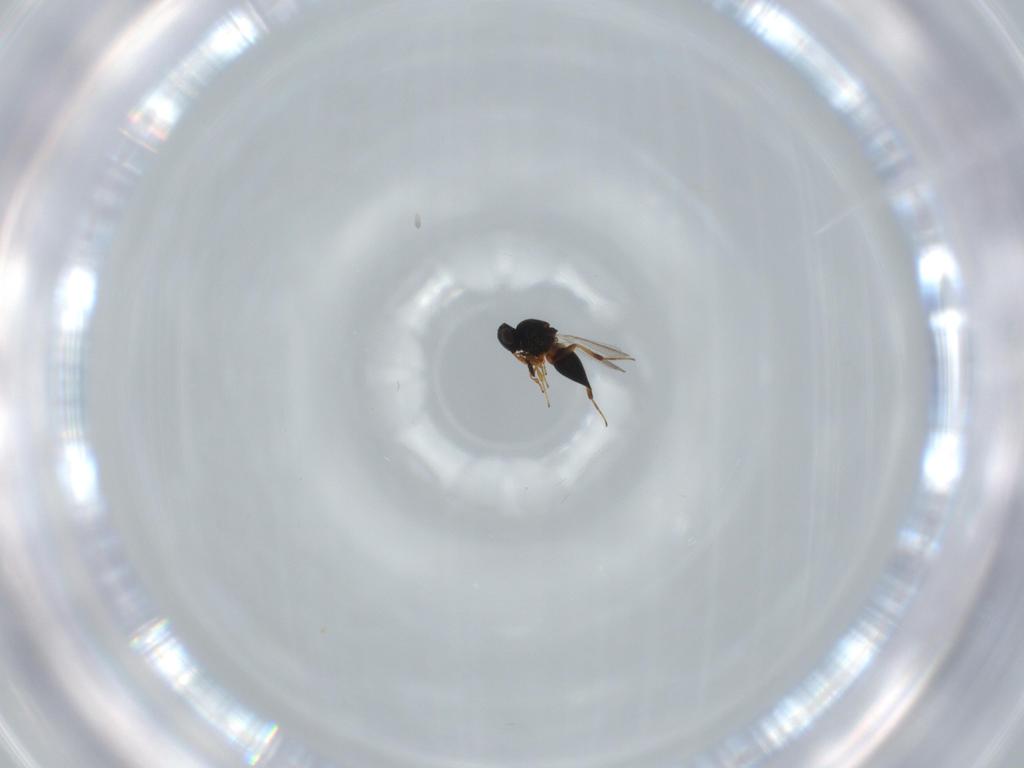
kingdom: Animalia
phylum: Arthropoda
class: Insecta
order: Hymenoptera
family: Platygastridae
